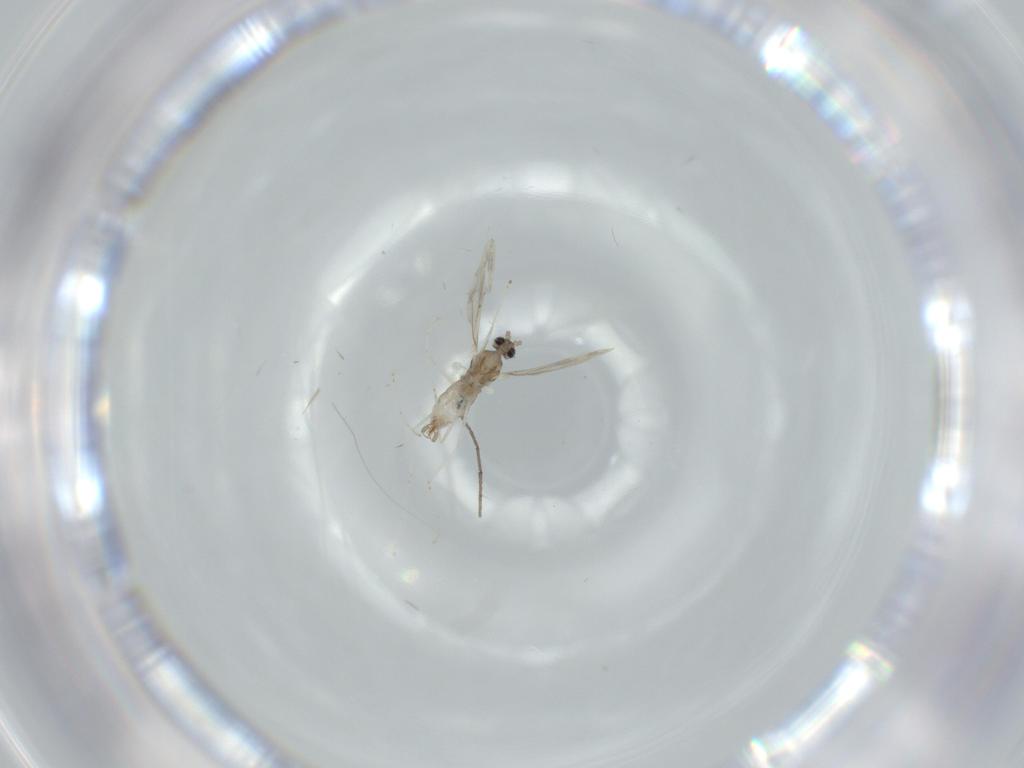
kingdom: Animalia
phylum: Arthropoda
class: Insecta
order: Diptera
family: Cecidomyiidae
